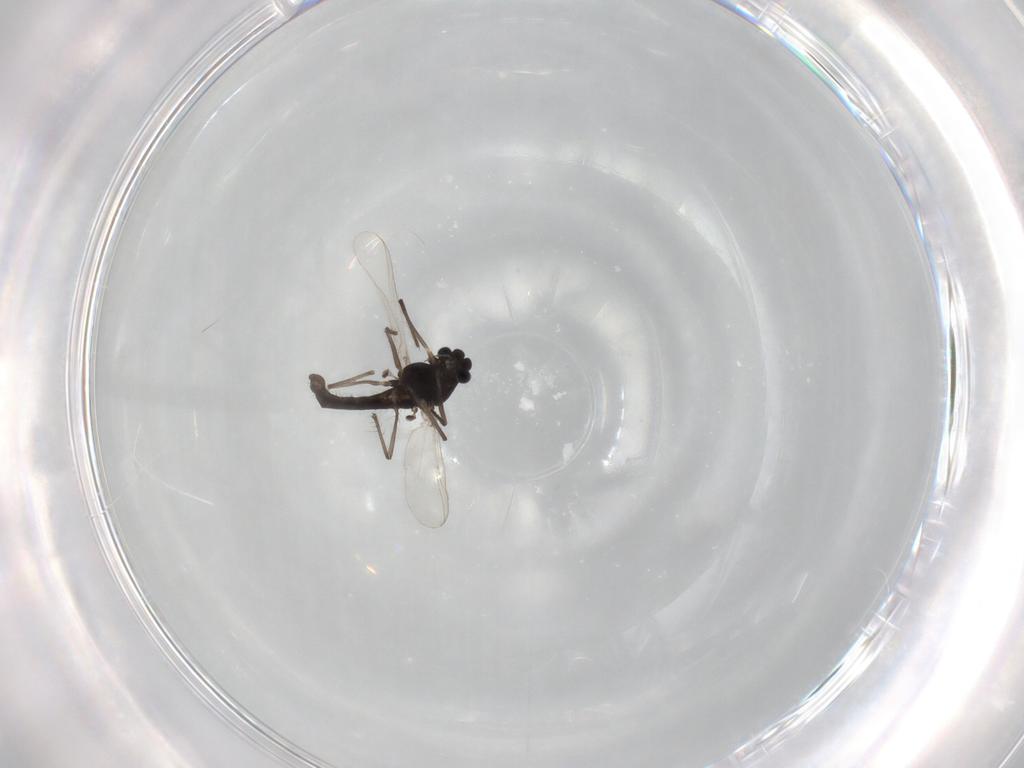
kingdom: Animalia
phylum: Arthropoda
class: Insecta
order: Diptera
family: Chironomidae
